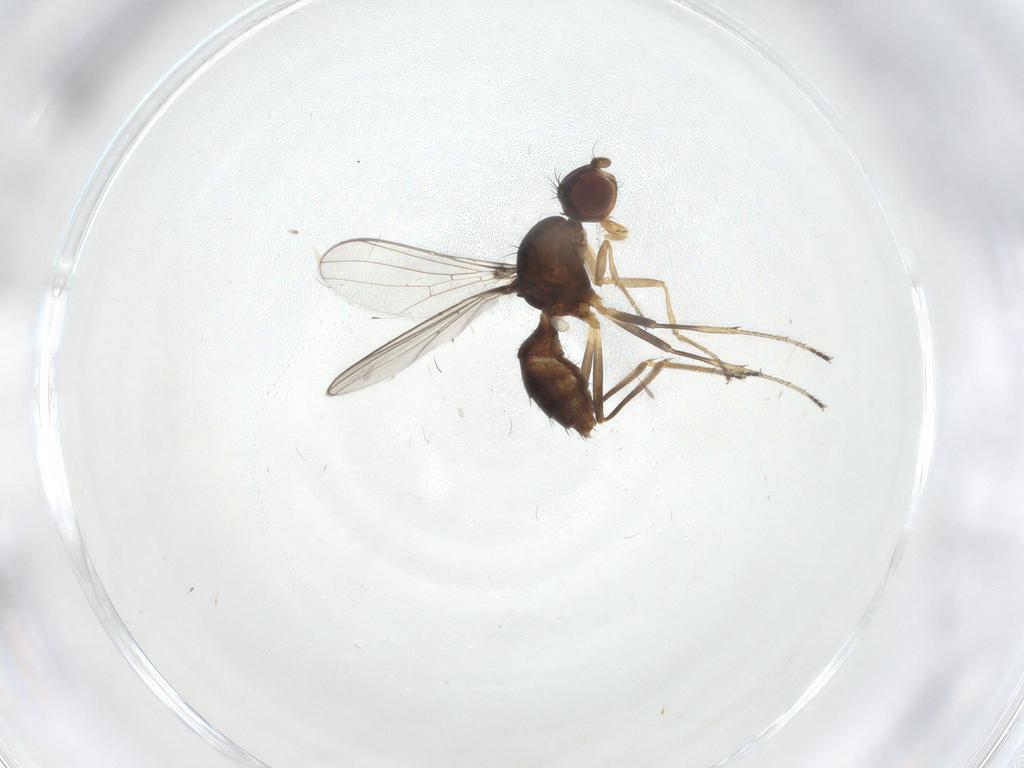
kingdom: Animalia
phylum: Arthropoda
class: Insecta
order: Diptera
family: Sepsidae
